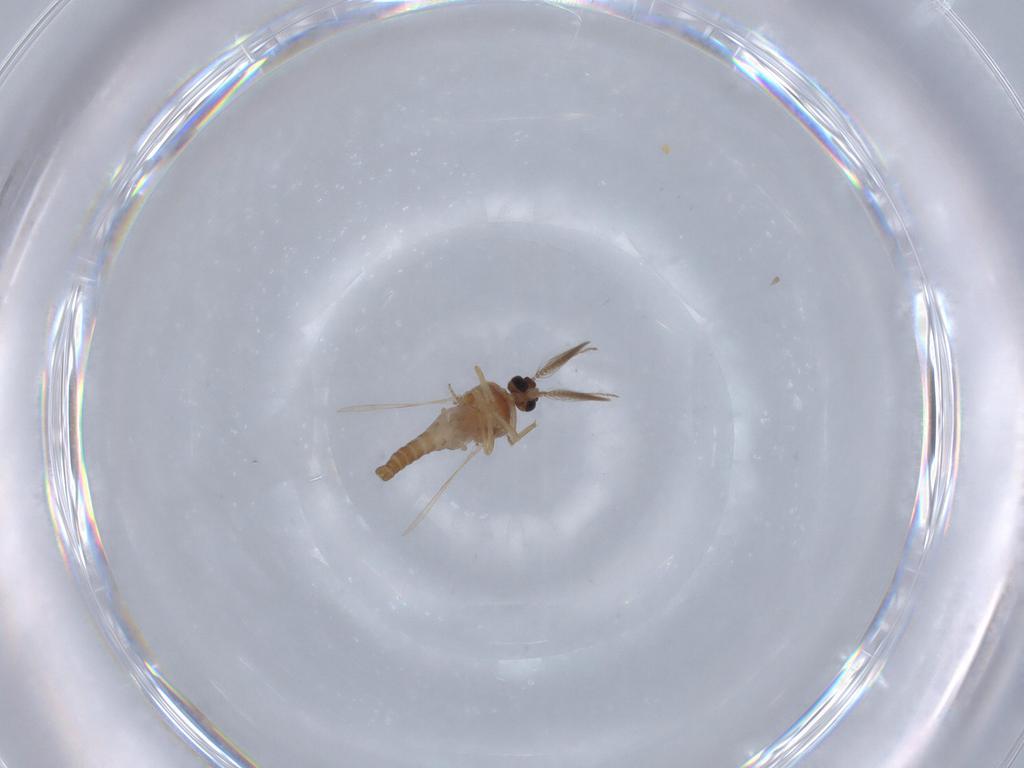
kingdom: Animalia
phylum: Arthropoda
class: Insecta
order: Diptera
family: Ceratopogonidae
